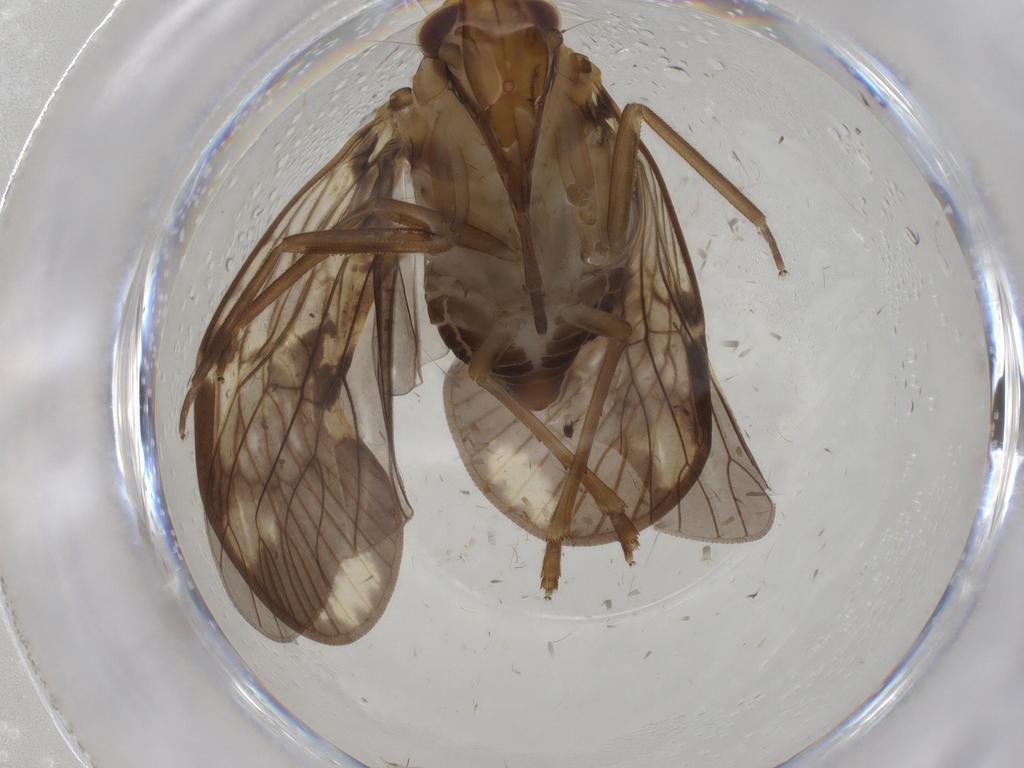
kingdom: Animalia
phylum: Arthropoda
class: Insecta
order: Hemiptera
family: Cixiidae
